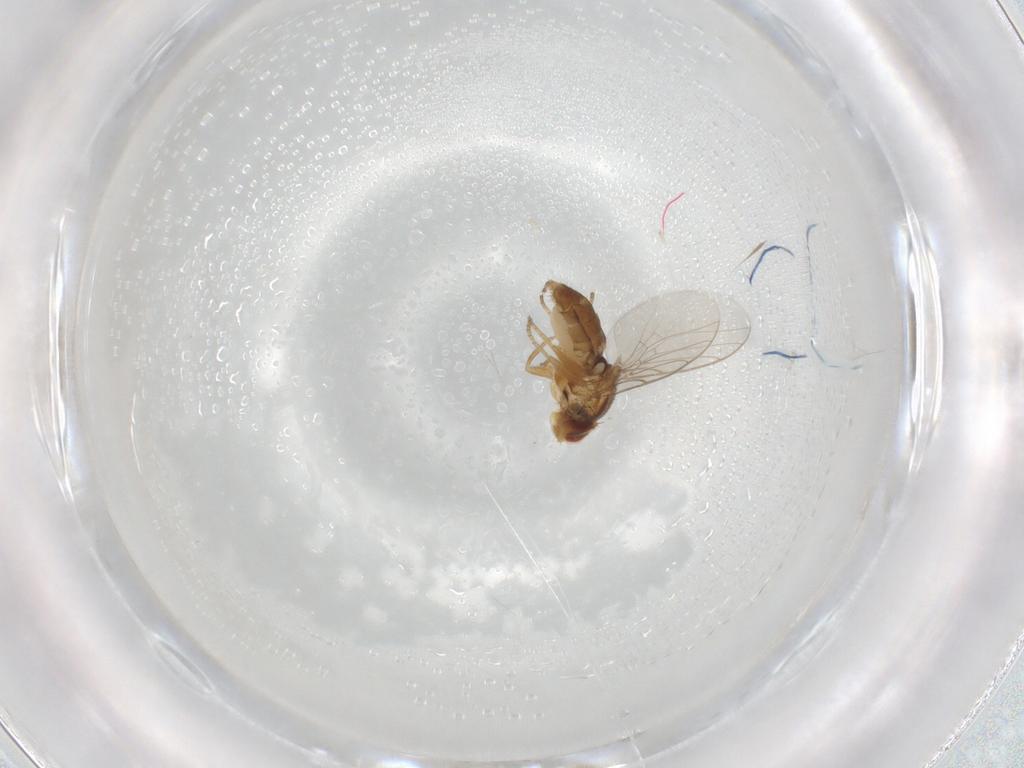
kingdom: Animalia
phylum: Arthropoda
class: Insecta
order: Diptera
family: Chloropidae
